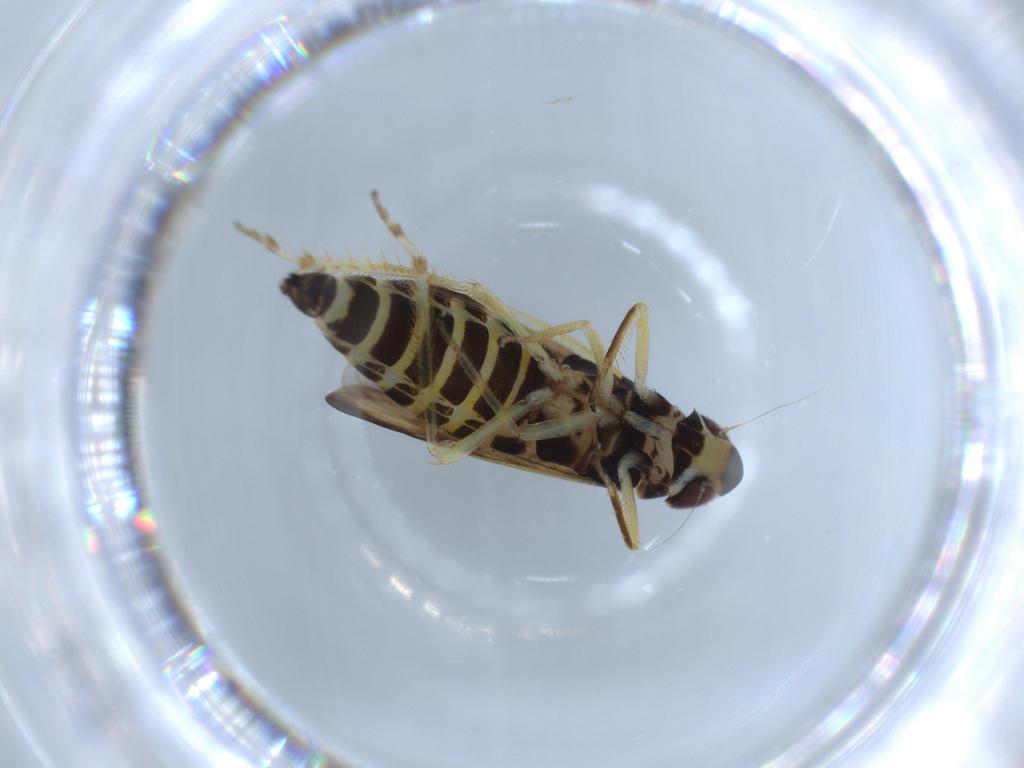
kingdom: Animalia
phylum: Arthropoda
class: Insecta
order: Hemiptera
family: Cicadellidae
